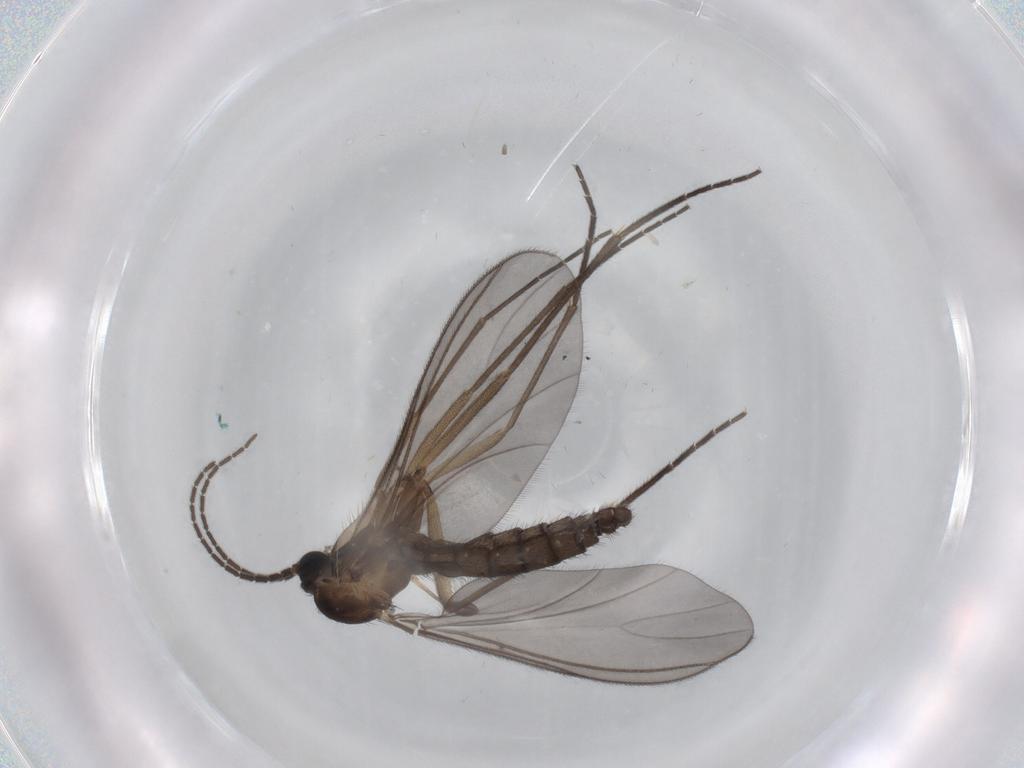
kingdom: Animalia
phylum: Arthropoda
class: Insecta
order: Diptera
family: Sciaridae
